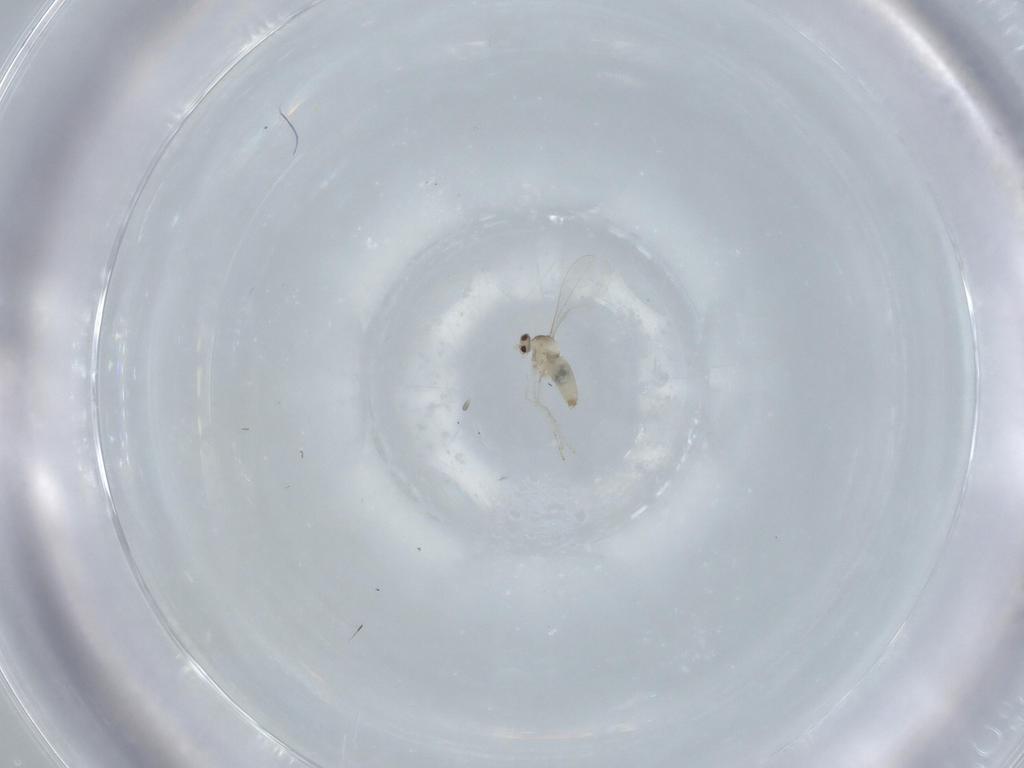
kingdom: Animalia
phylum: Arthropoda
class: Insecta
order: Diptera
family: Cecidomyiidae
